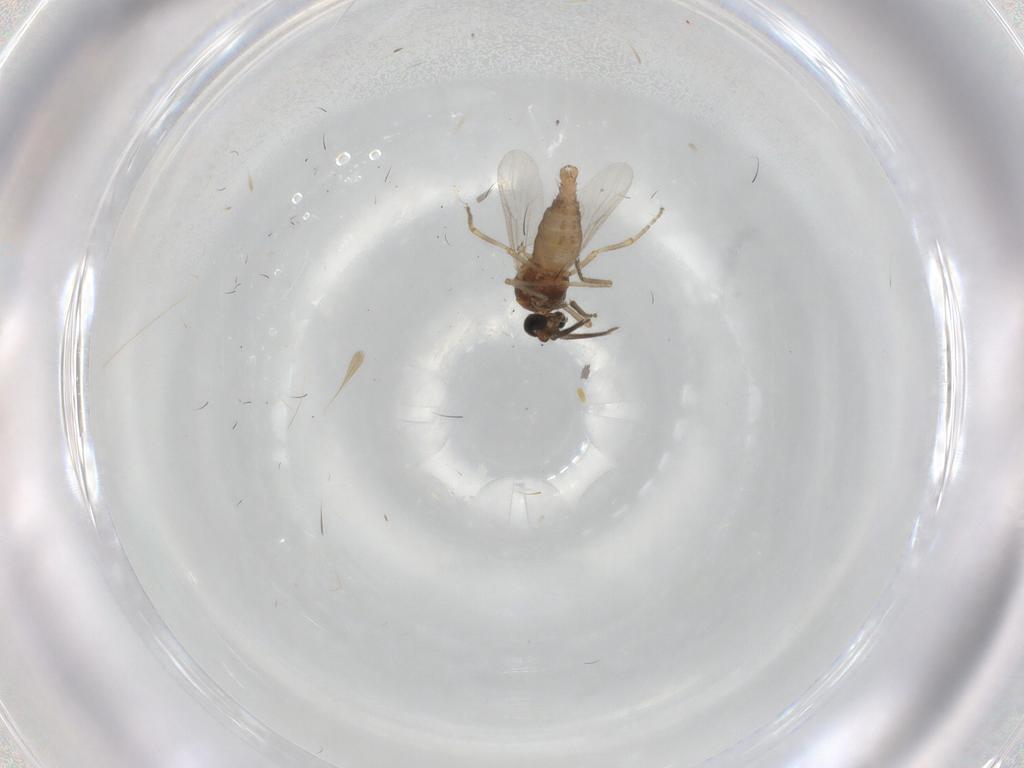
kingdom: Animalia
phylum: Arthropoda
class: Insecta
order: Diptera
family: Ceratopogonidae
